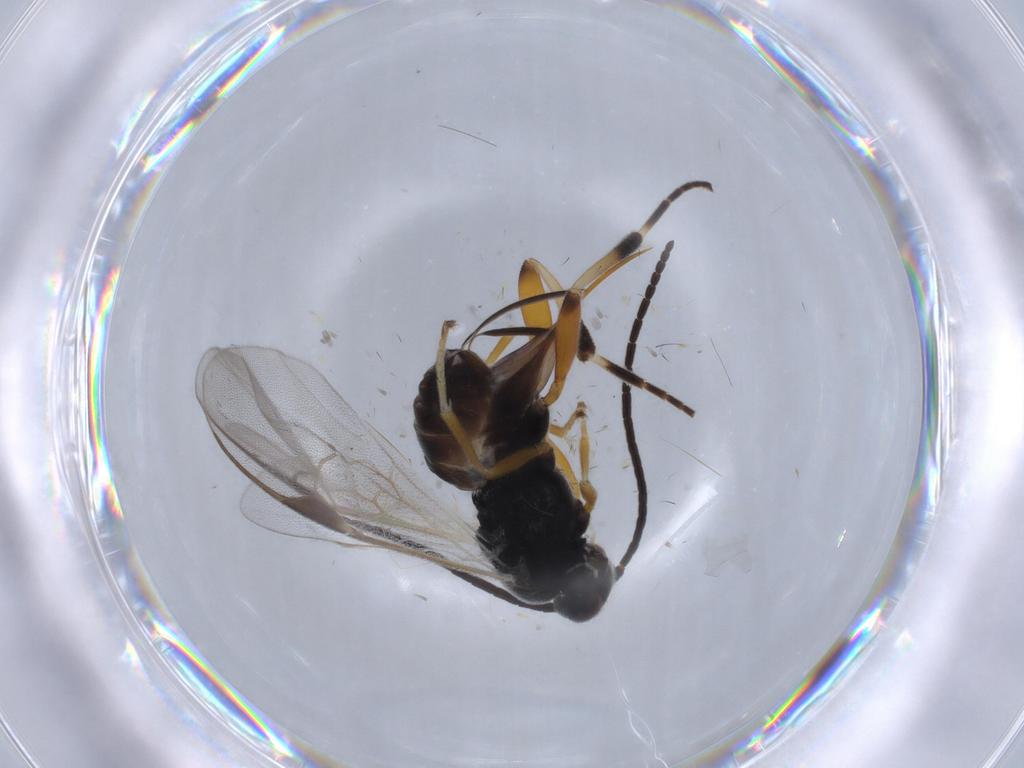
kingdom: Animalia
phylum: Arthropoda
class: Insecta
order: Hymenoptera
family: Braconidae
